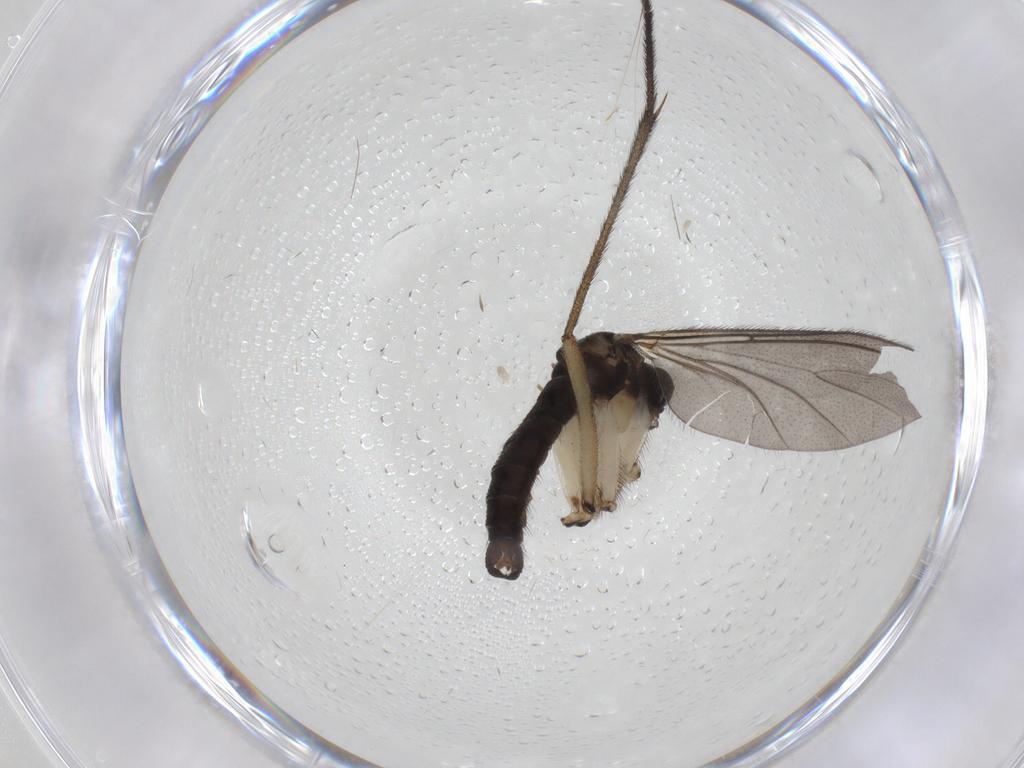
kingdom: Animalia
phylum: Arthropoda
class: Insecta
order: Diptera
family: Sciaridae
